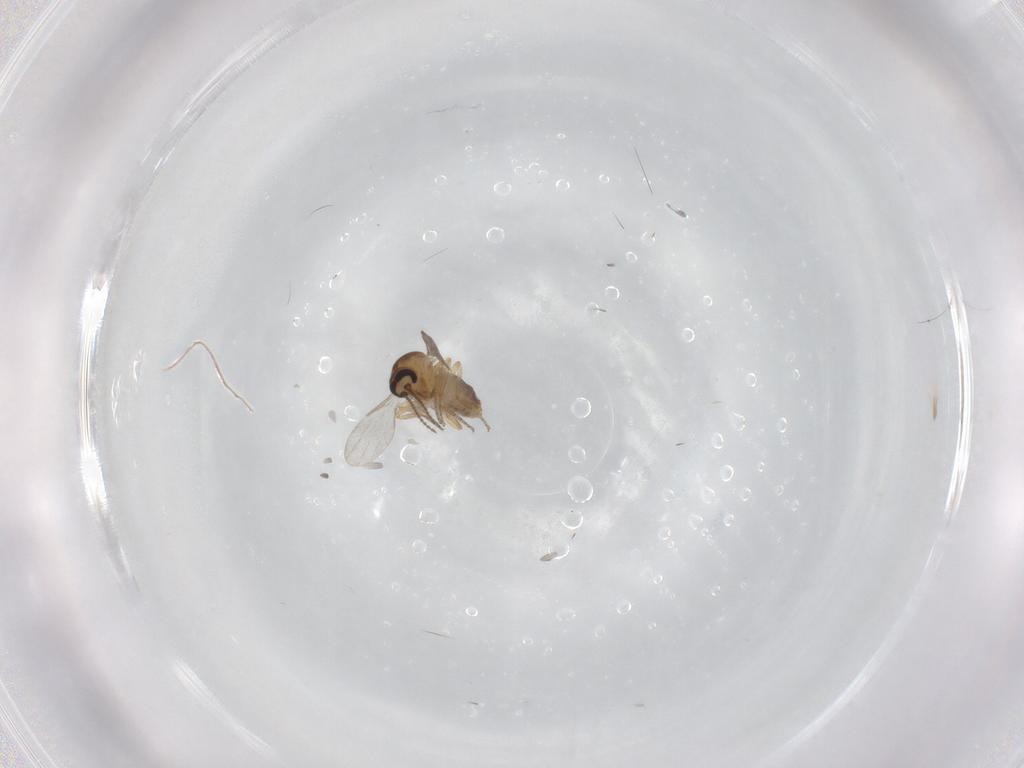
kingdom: Animalia
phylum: Arthropoda
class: Insecta
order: Diptera
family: Ceratopogonidae
